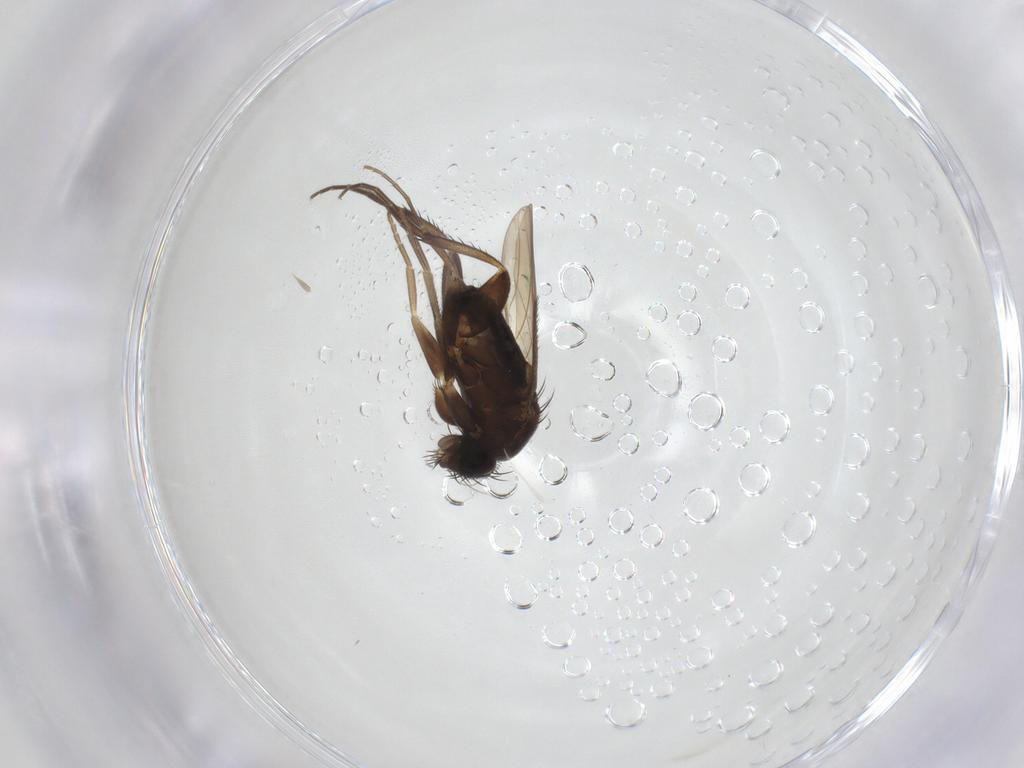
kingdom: Animalia
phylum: Arthropoda
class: Insecta
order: Diptera
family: Phoridae
